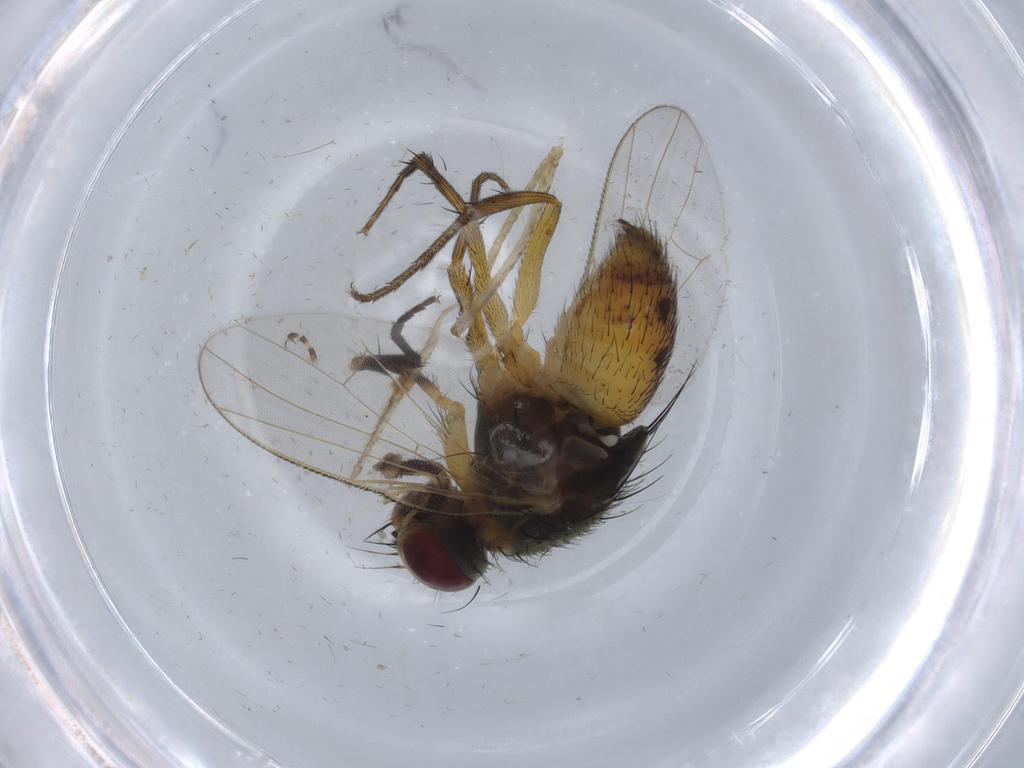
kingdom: Animalia
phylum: Arthropoda
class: Insecta
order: Diptera
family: Muscidae
